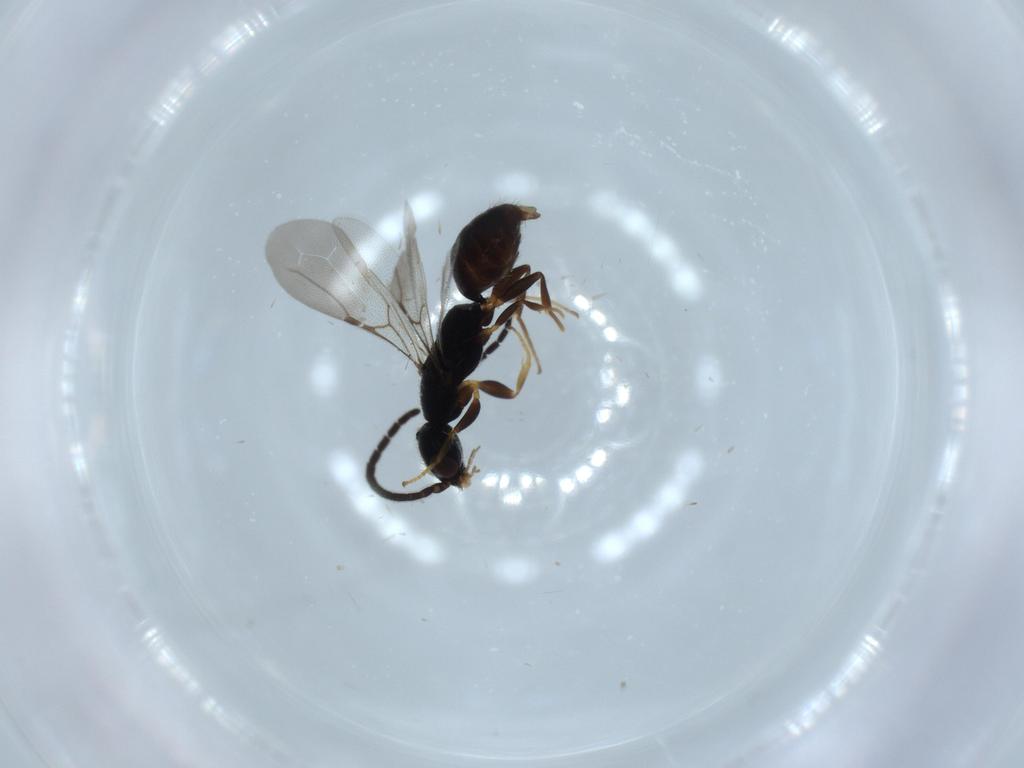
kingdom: Animalia
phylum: Arthropoda
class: Insecta
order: Hymenoptera
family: Bethylidae
